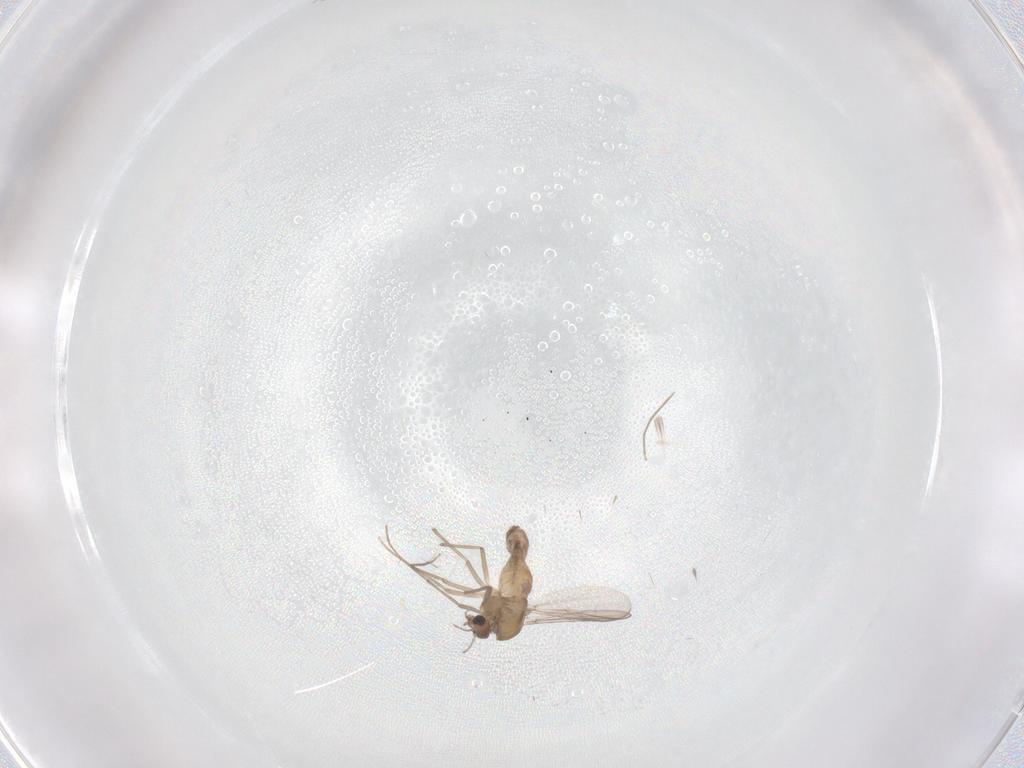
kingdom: Animalia
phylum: Arthropoda
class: Insecta
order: Diptera
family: Chironomidae
